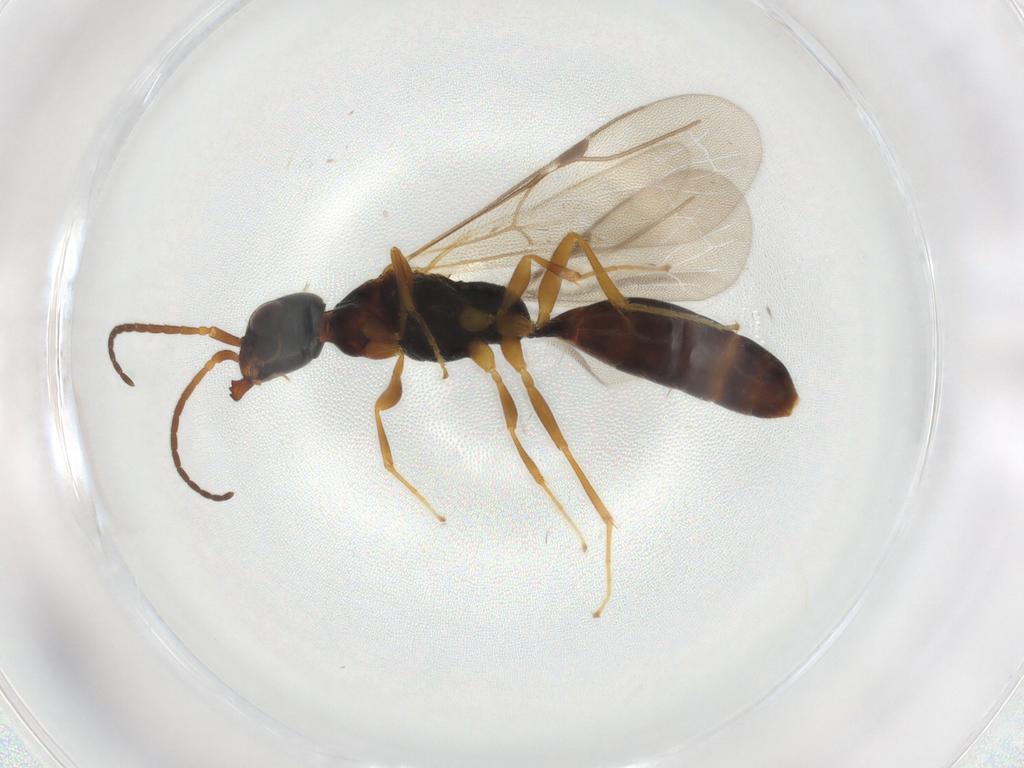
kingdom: Animalia
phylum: Arthropoda
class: Insecta
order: Hymenoptera
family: Bethylidae
